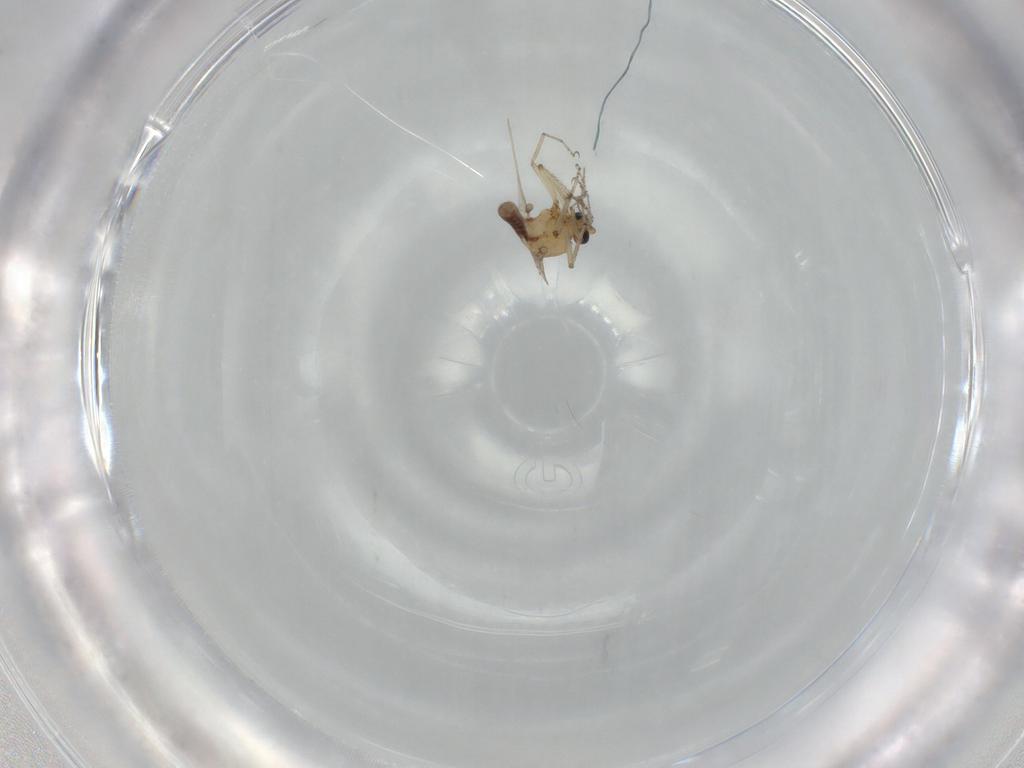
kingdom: Animalia
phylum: Arthropoda
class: Insecta
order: Diptera
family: Ceratopogonidae
